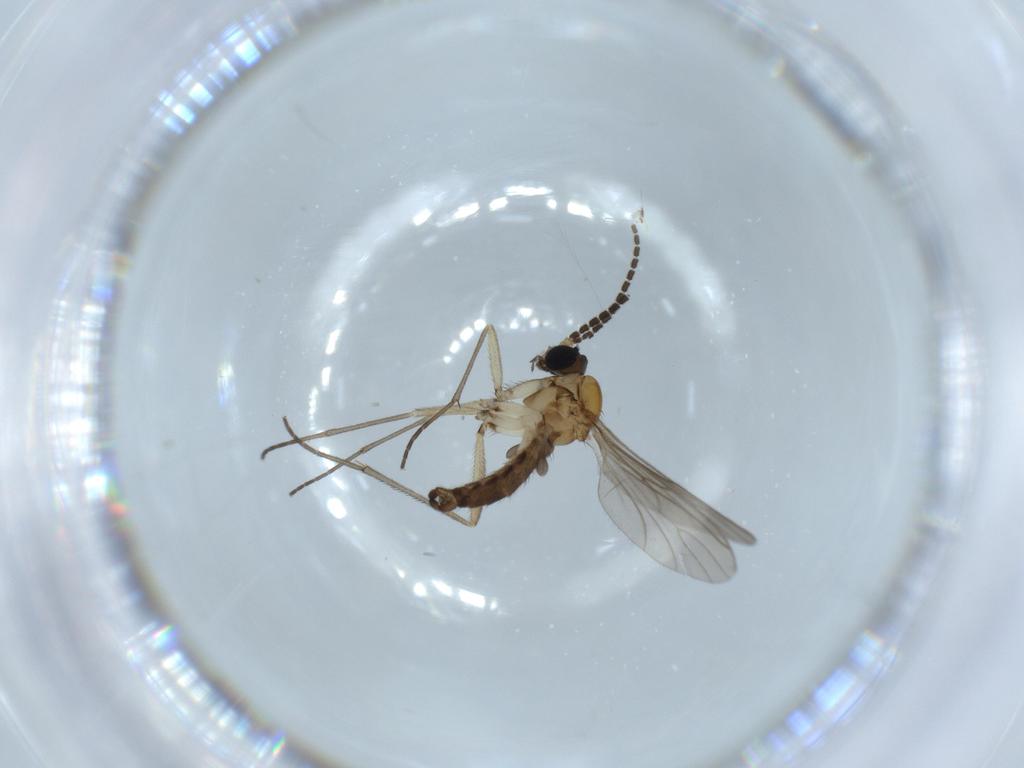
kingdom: Animalia
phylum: Arthropoda
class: Insecta
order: Diptera
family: Sciaridae
